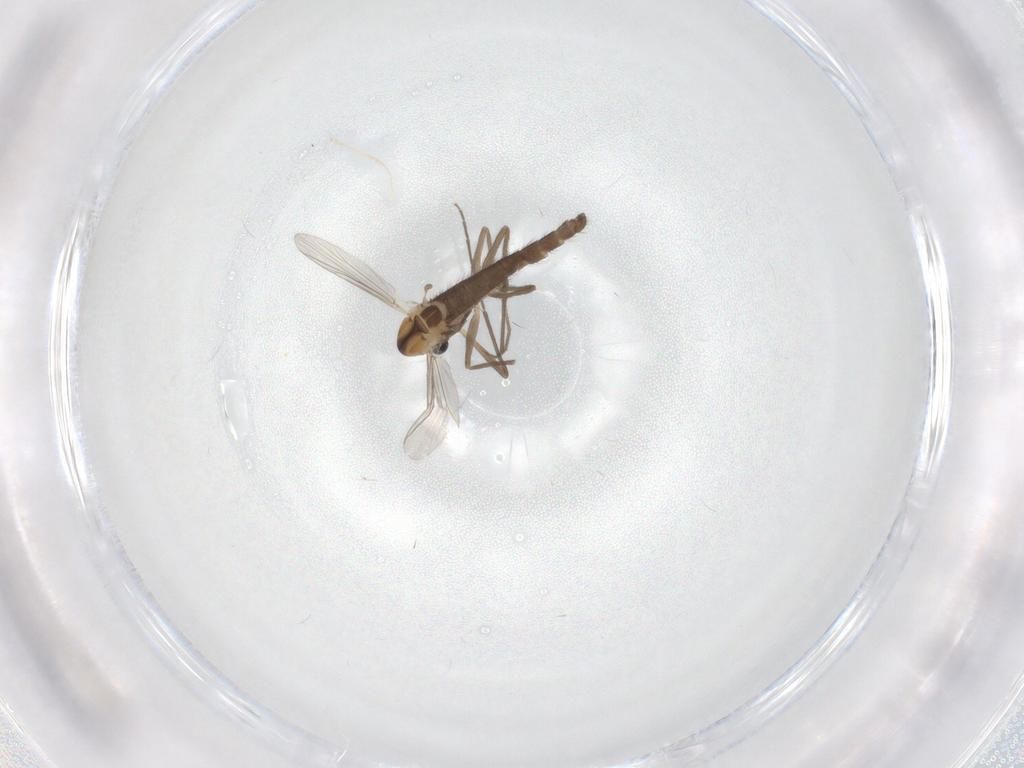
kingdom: Animalia
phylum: Arthropoda
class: Insecta
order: Diptera
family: Chironomidae
